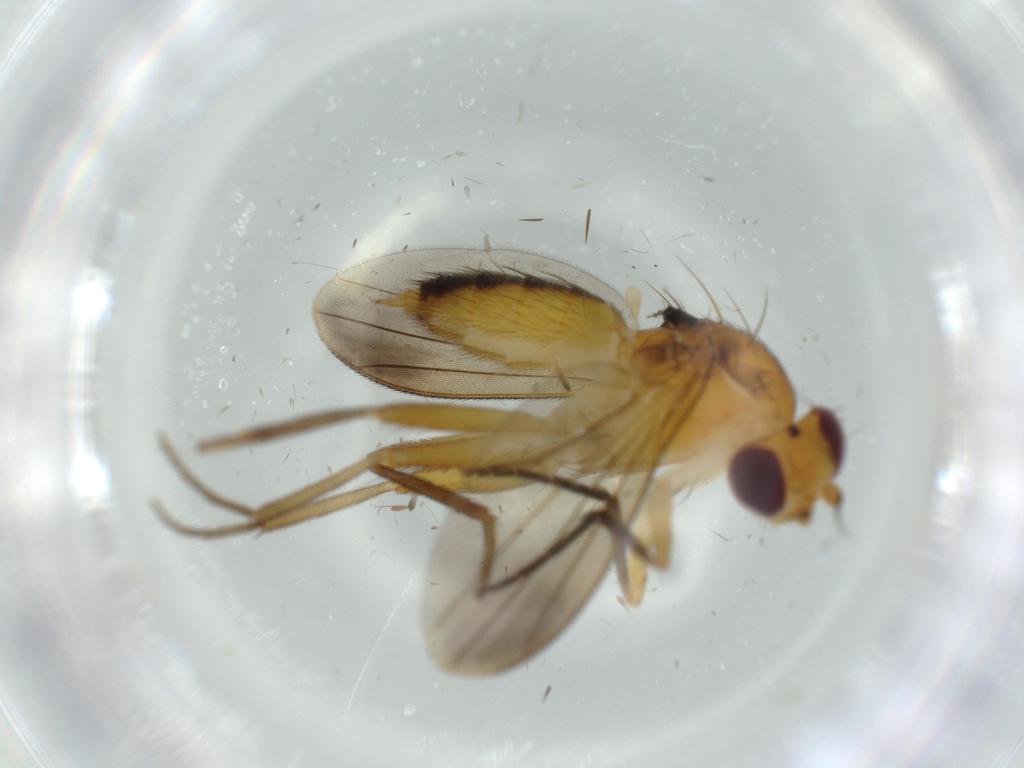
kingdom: Animalia
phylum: Arthropoda
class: Insecta
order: Diptera
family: Clusiidae
